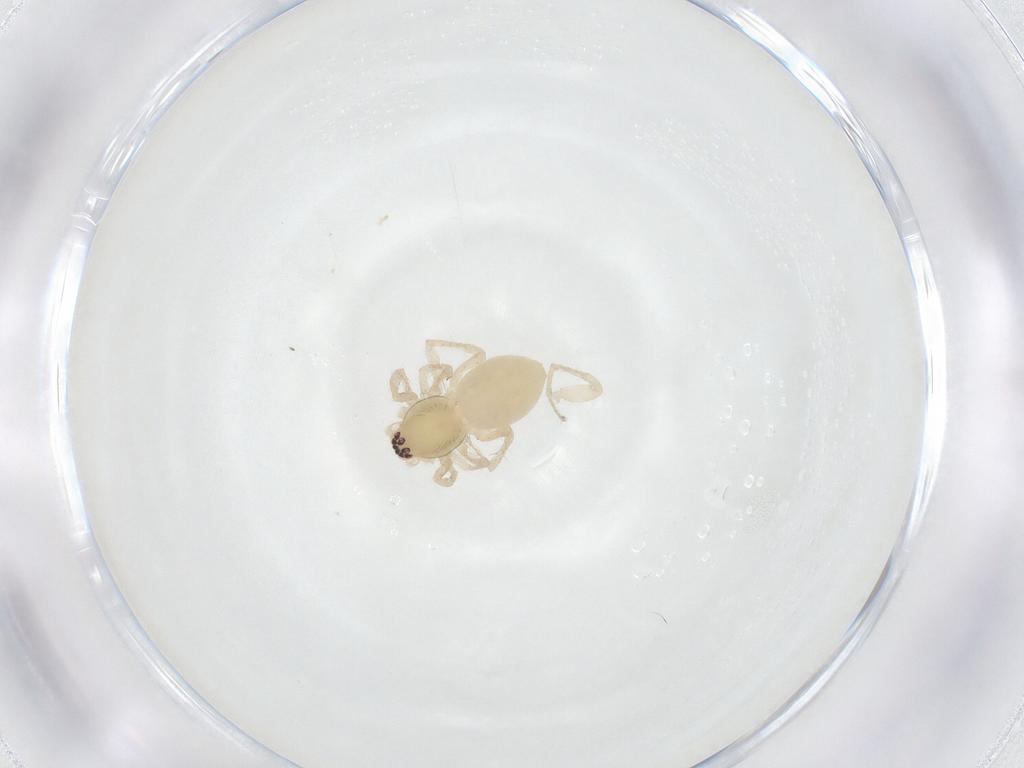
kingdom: Animalia
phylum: Arthropoda
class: Arachnida
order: Araneae
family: Anyphaenidae
